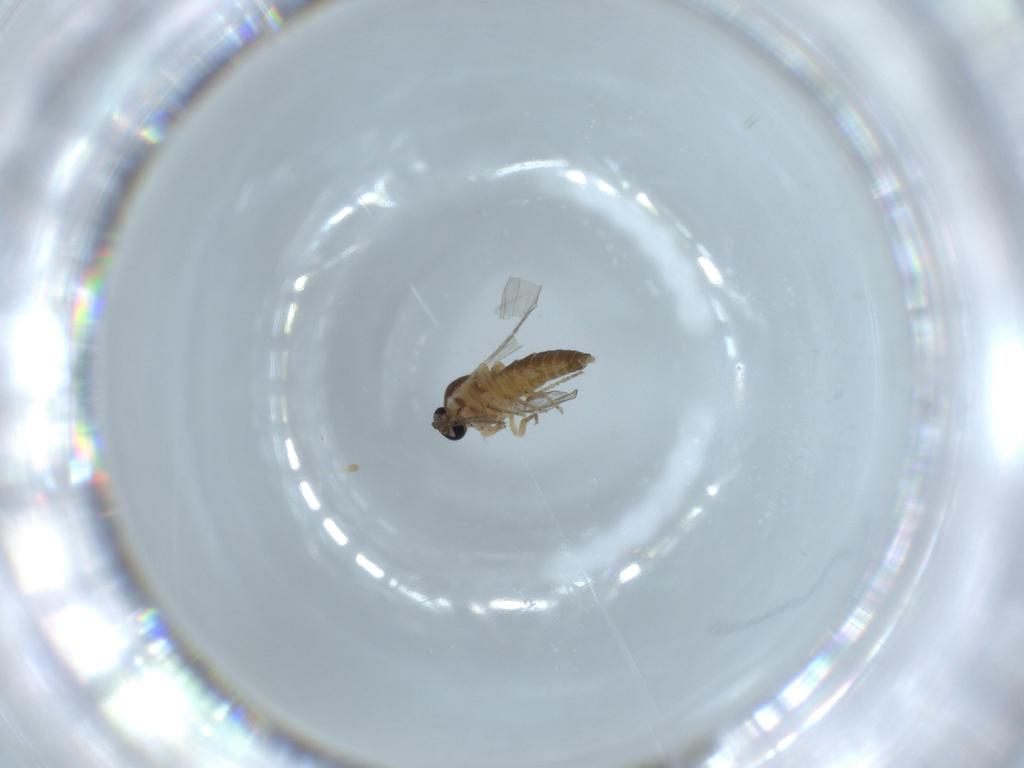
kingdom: Animalia
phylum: Arthropoda
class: Insecta
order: Diptera
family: Ceratopogonidae
